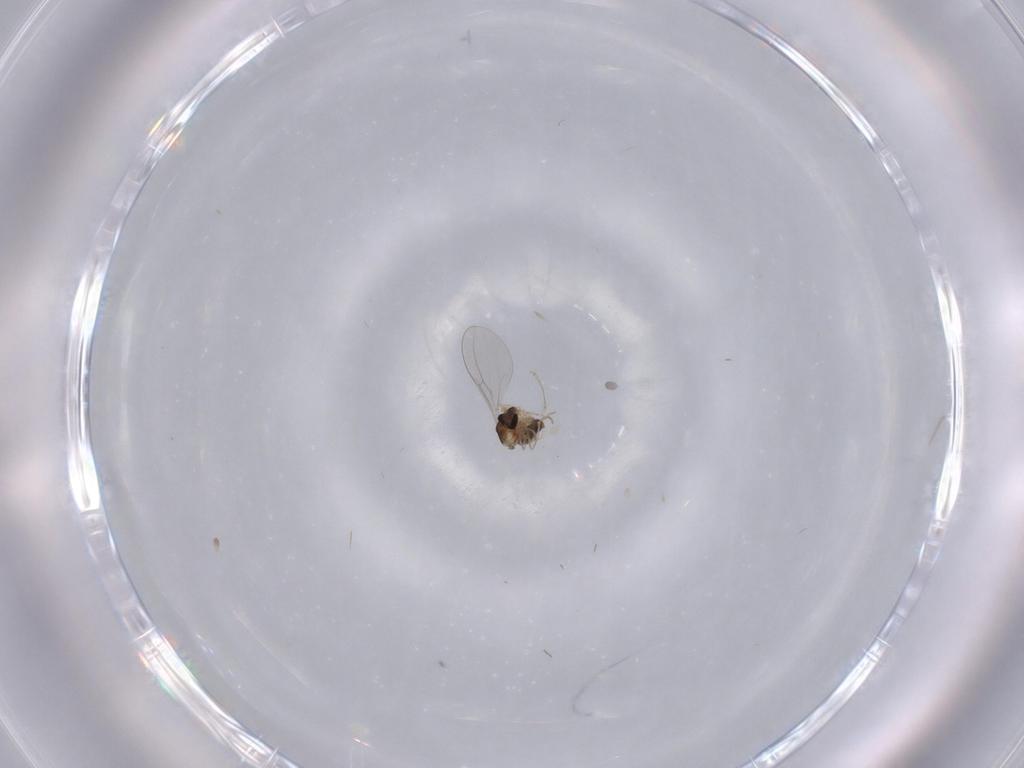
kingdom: Animalia
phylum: Arthropoda
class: Insecta
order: Diptera
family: Cecidomyiidae
